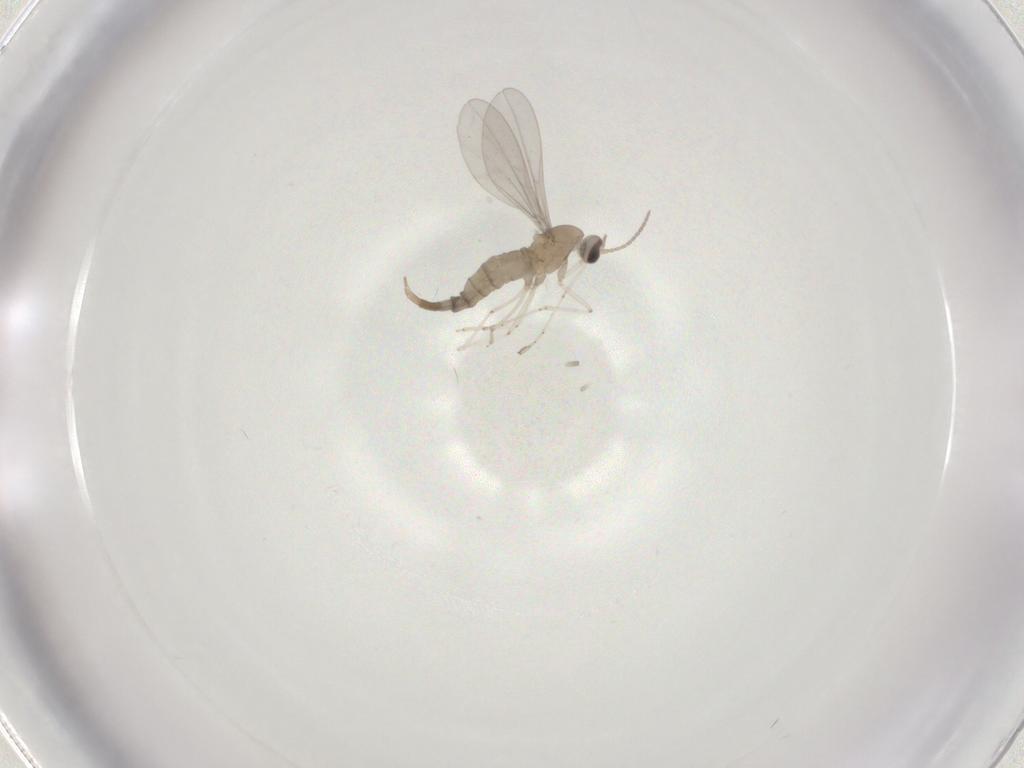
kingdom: Animalia
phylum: Arthropoda
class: Insecta
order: Diptera
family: Cecidomyiidae
